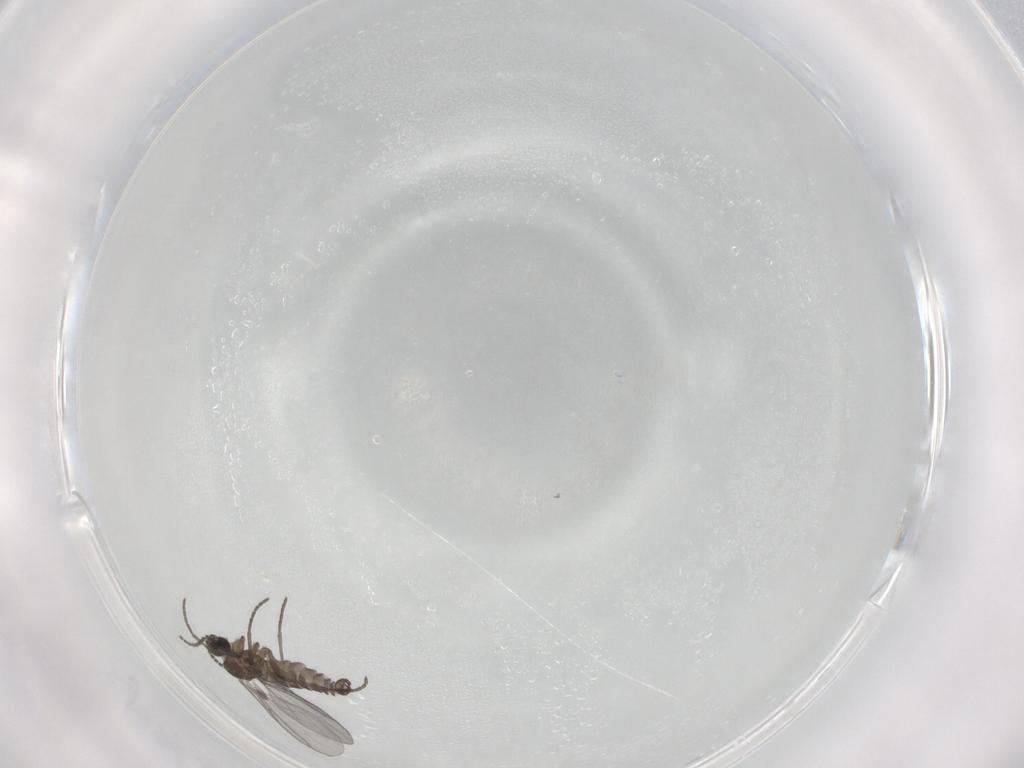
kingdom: Animalia
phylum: Arthropoda
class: Insecta
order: Diptera
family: Sciaridae
